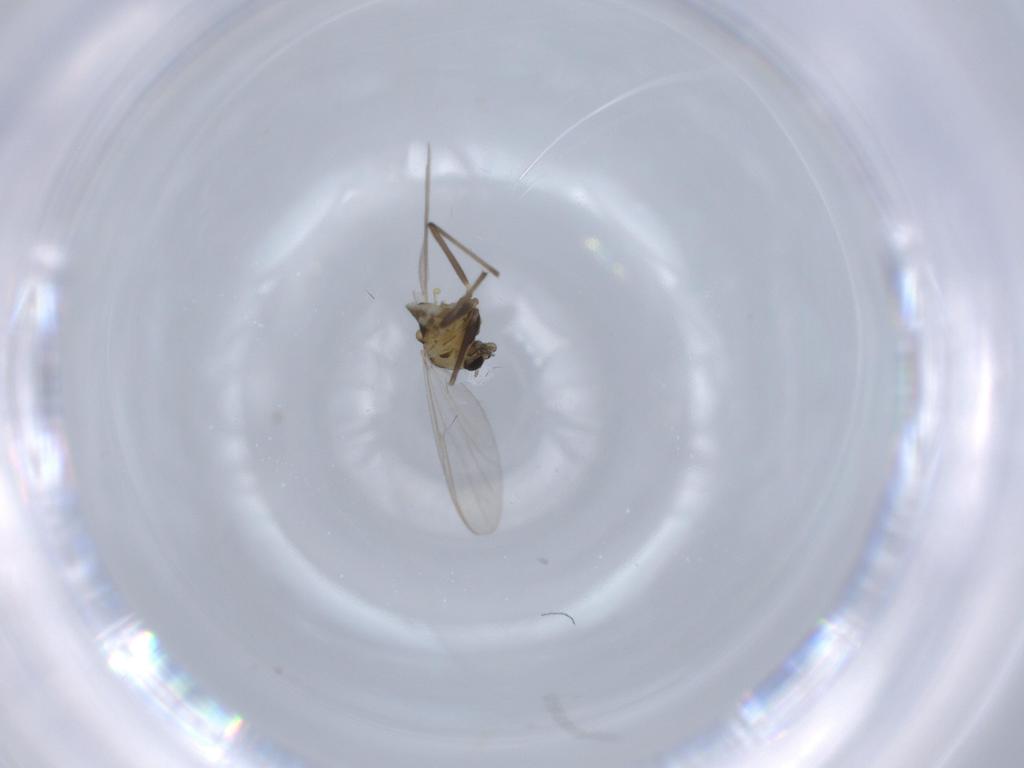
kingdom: Animalia
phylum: Arthropoda
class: Insecta
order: Diptera
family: Chironomidae
